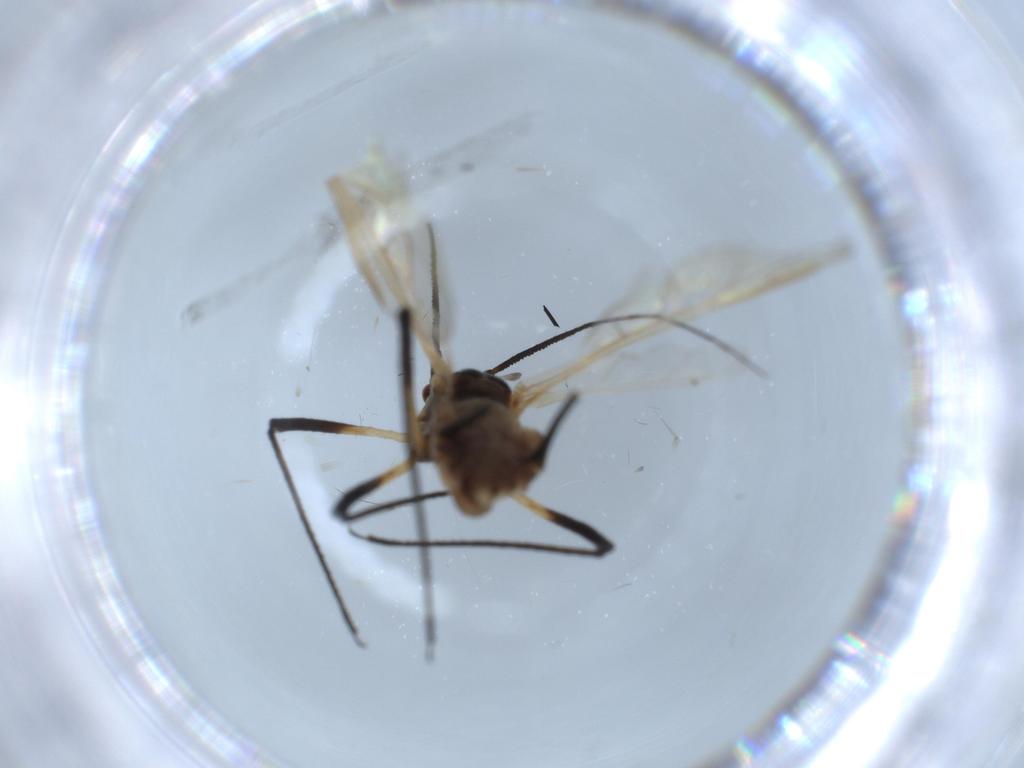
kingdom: Animalia
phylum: Arthropoda
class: Insecta
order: Hemiptera
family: Aphididae
